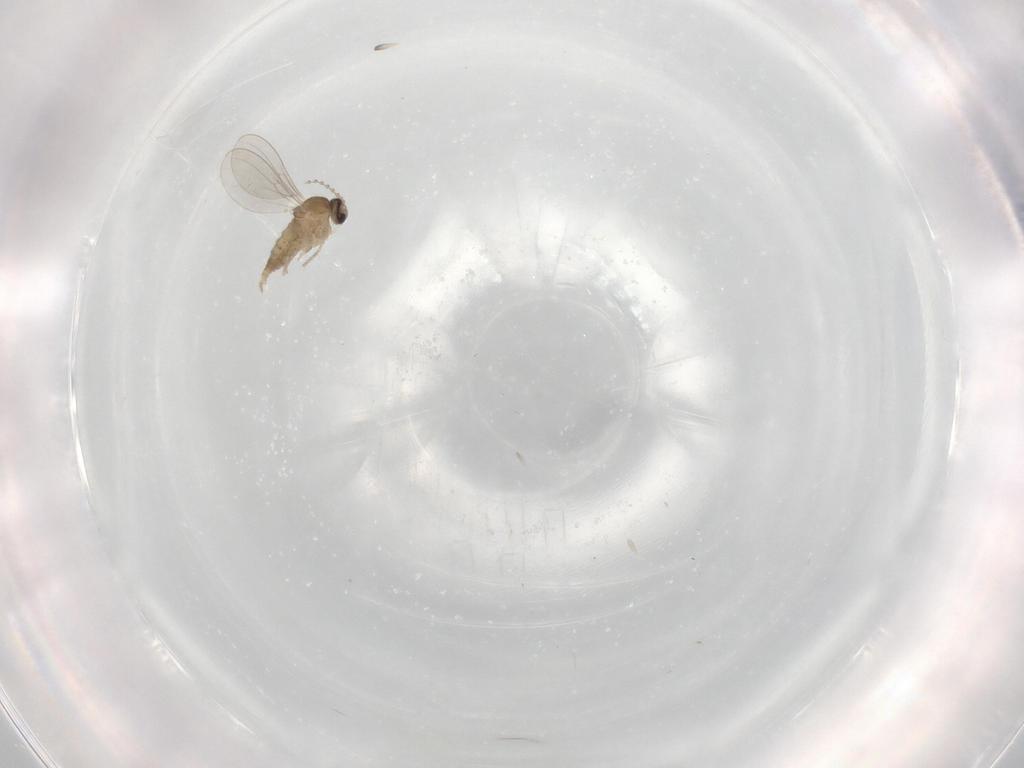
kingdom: Animalia
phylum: Arthropoda
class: Insecta
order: Diptera
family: Cecidomyiidae
